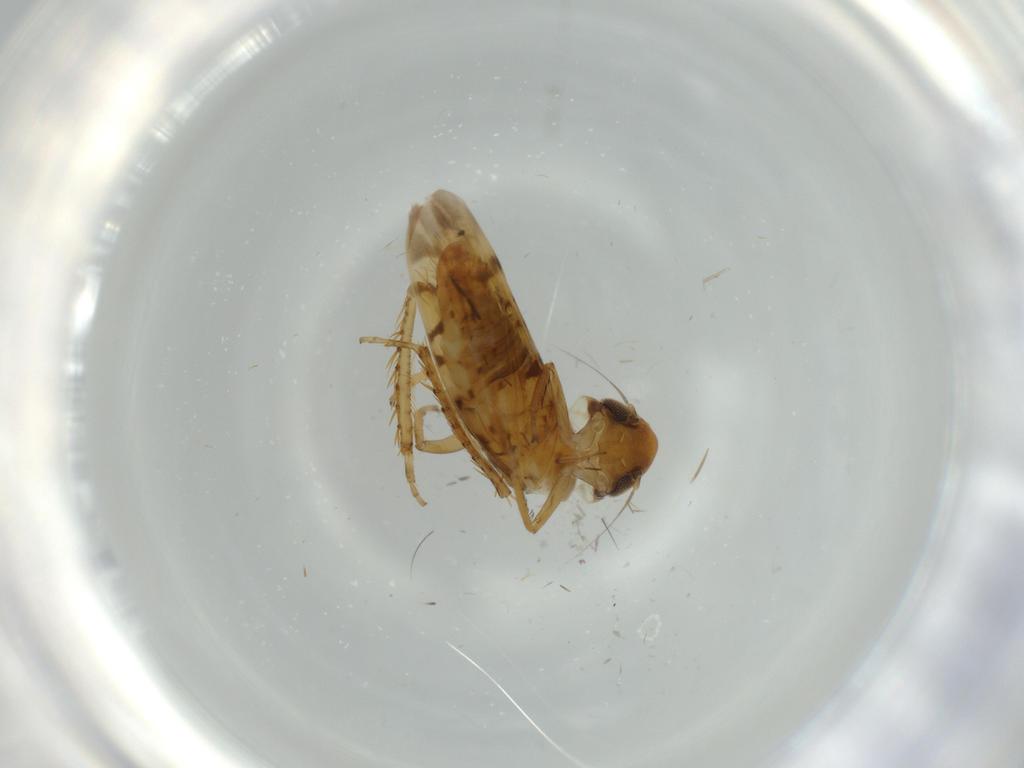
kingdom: Animalia
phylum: Arthropoda
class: Insecta
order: Hemiptera
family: Cicadellidae
